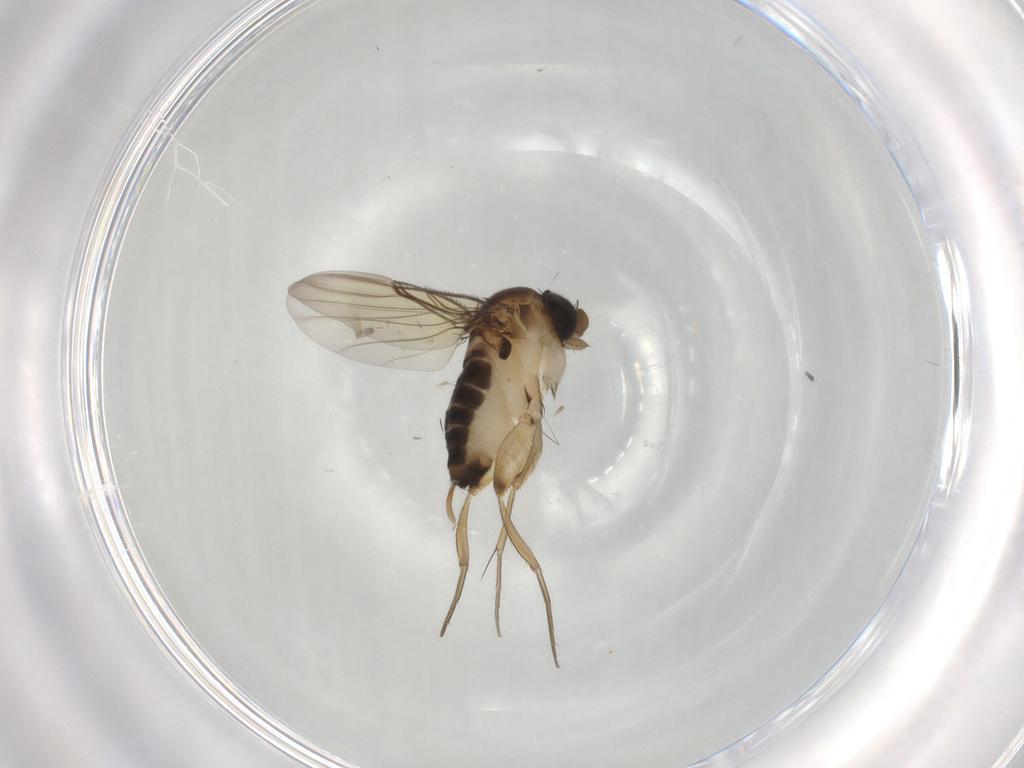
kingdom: Animalia
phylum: Arthropoda
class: Insecta
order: Diptera
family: Phoridae
